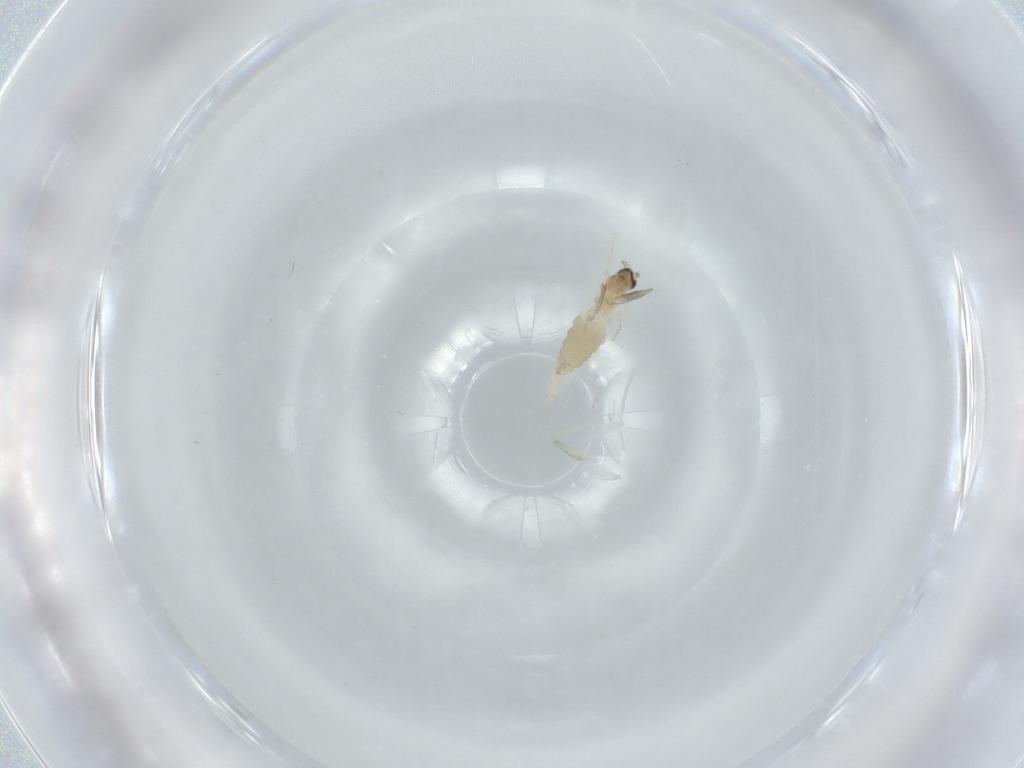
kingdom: Animalia
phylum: Arthropoda
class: Insecta
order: Diptera
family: Cecidomyiidae
